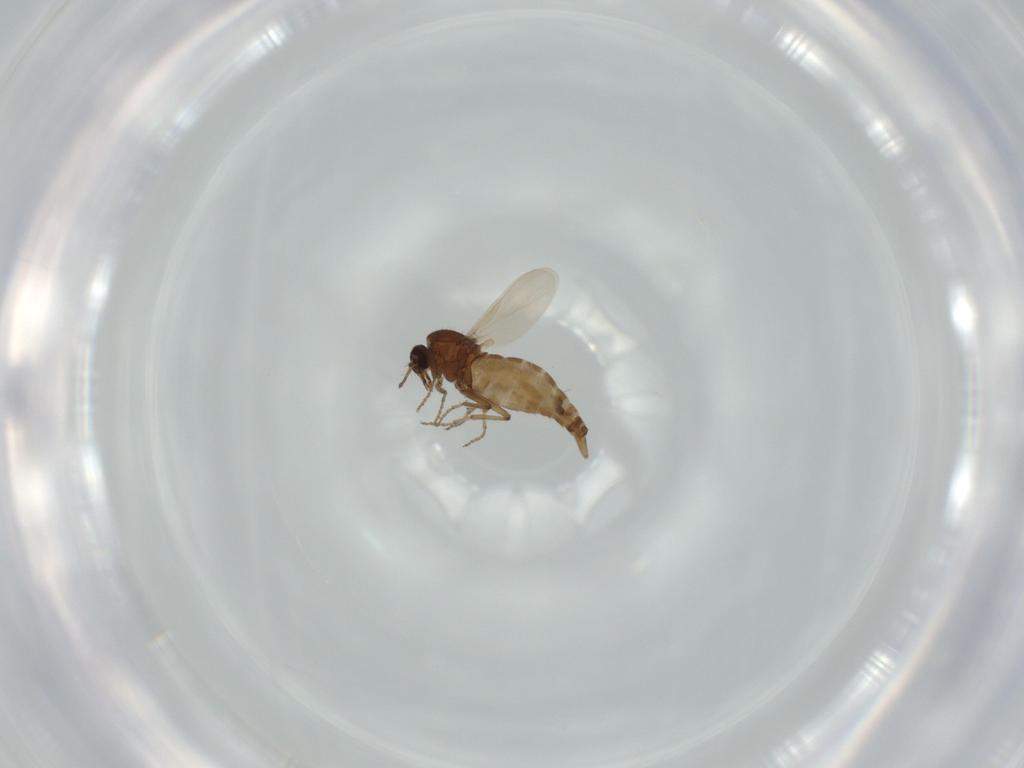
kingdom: Animalia
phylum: Arthropoda
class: Insecta
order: Diptera
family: Ceratopogonidae
